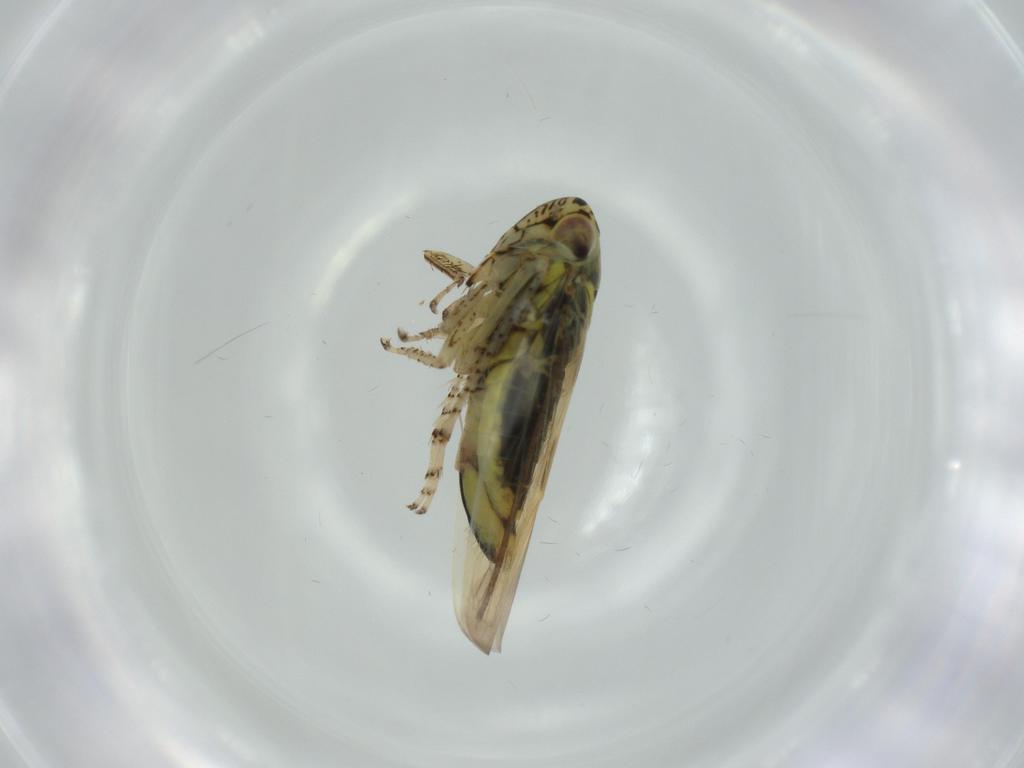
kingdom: Animalia
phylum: Arthropoda
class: Insecta
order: Hemiptera
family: Cicadellidae
